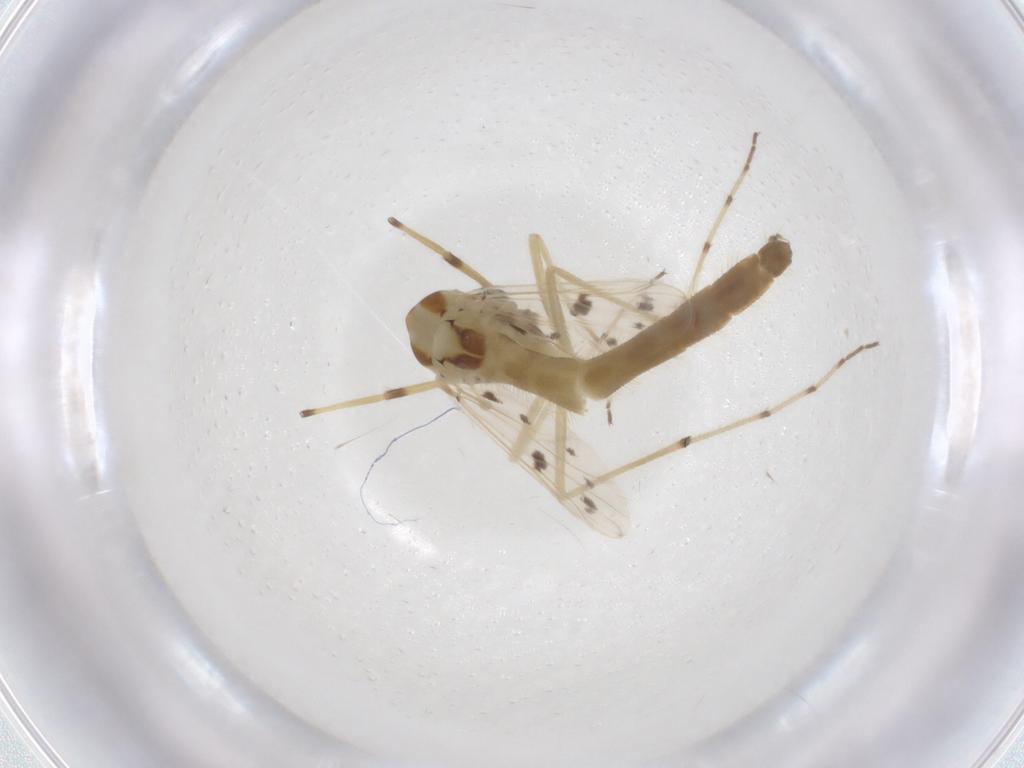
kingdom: Animalia
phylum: Arthropoda
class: Insecta
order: Diptera
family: Chironomidae
